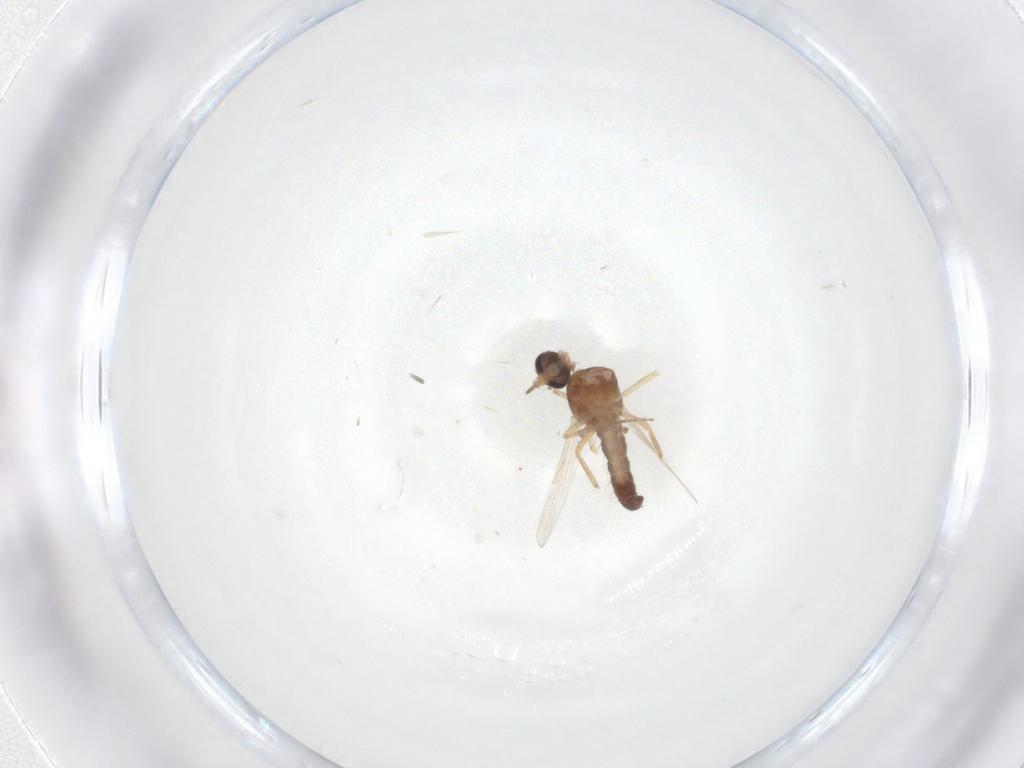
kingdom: Animalia
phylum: Arthropoda
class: Insecta
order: Diptera
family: Ceratopogonidae
